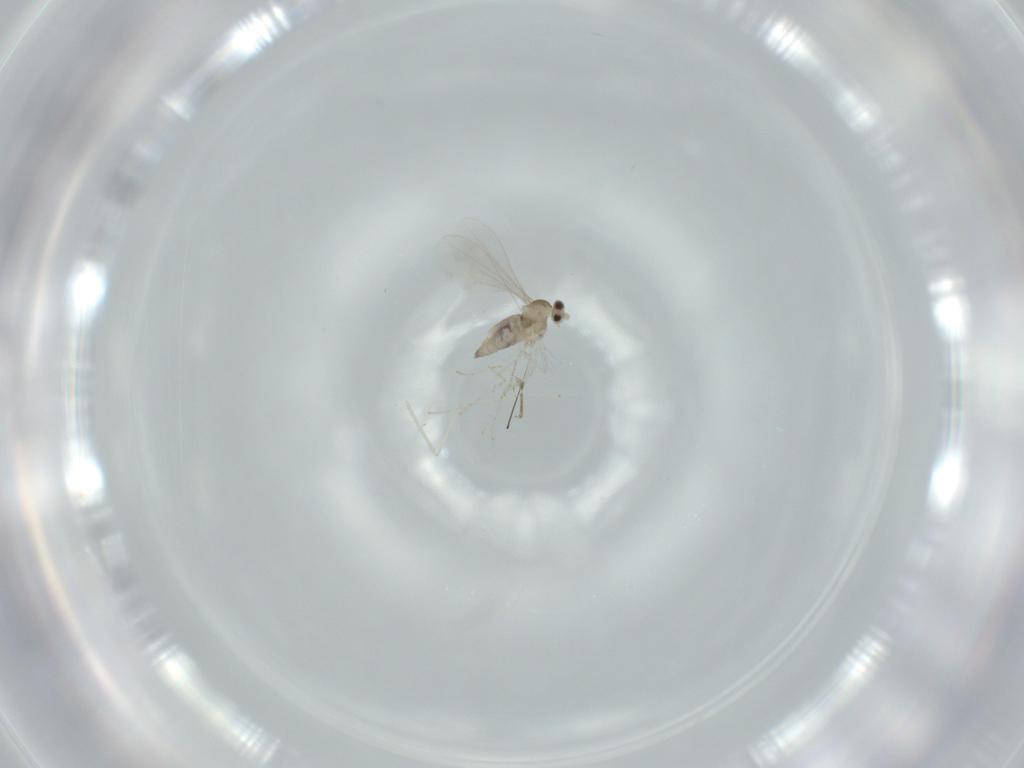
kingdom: Animalia
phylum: Arthropoda
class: Insecta
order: Diptera
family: Cecidomyiidae
